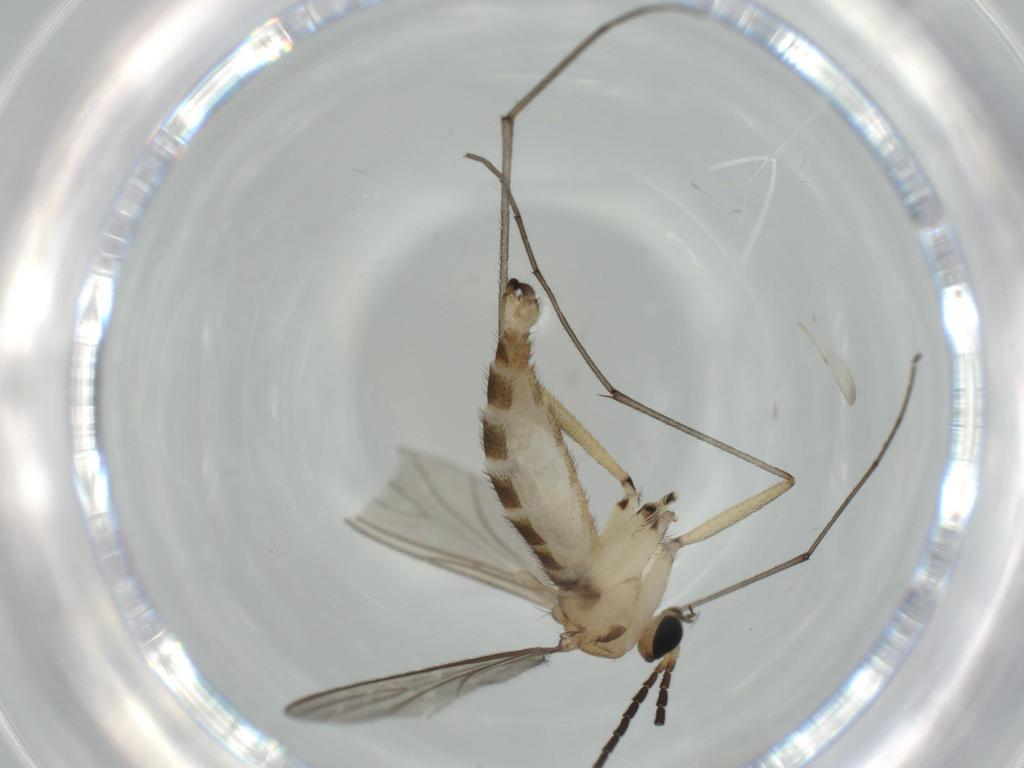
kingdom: Animalia
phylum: Arthropoda
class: Insecta
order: Diptera
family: Sciaridae
